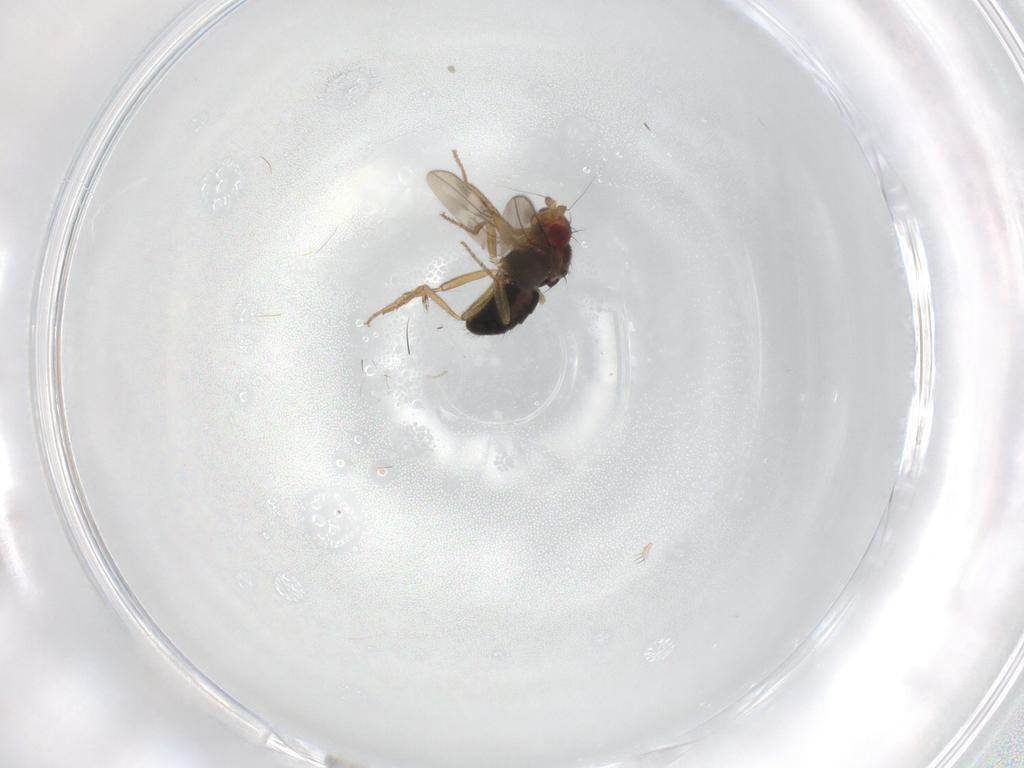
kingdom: Animalia
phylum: Arthropoda
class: Insecta
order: Diptera
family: Sphaeroceridae
